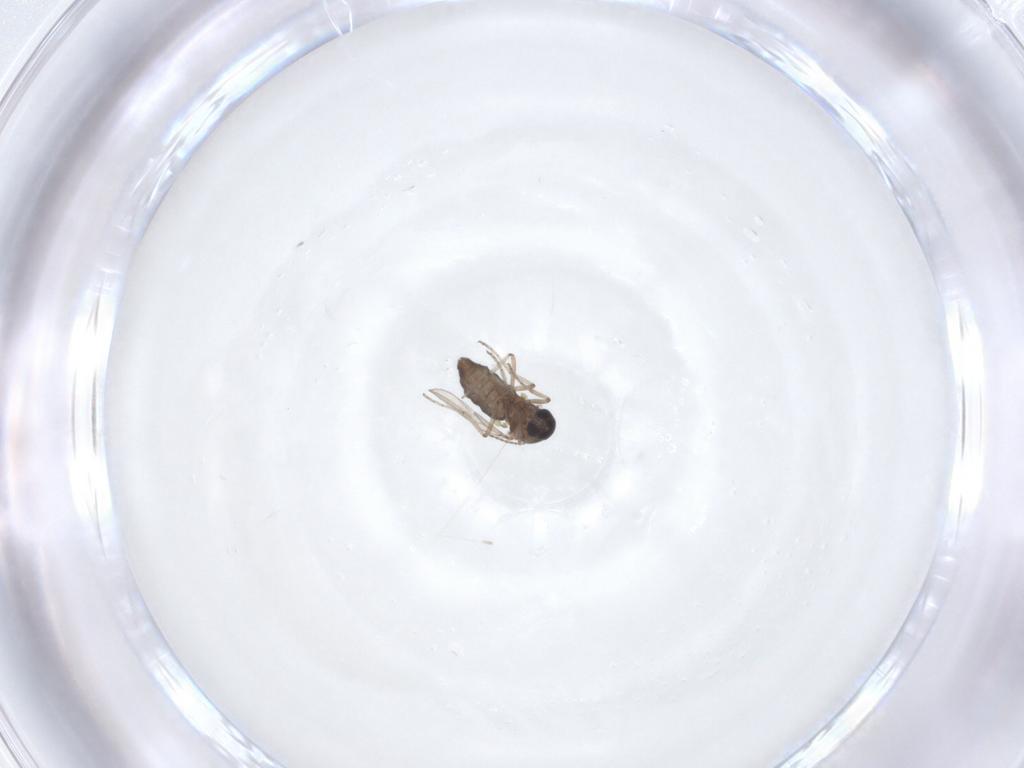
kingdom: Animalia
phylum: Arthropoda
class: Insecta
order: Diptera
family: Ceratopogonidae
